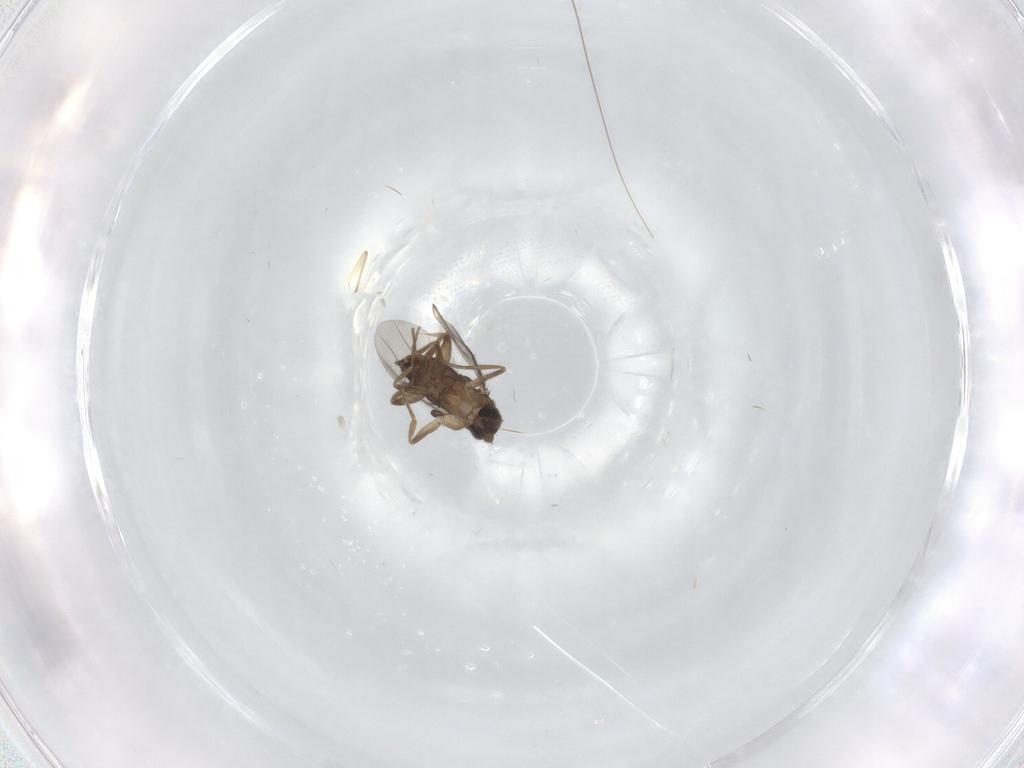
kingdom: Animalia
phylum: Arthropoda
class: Insecta
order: Diptera
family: Phoridae
